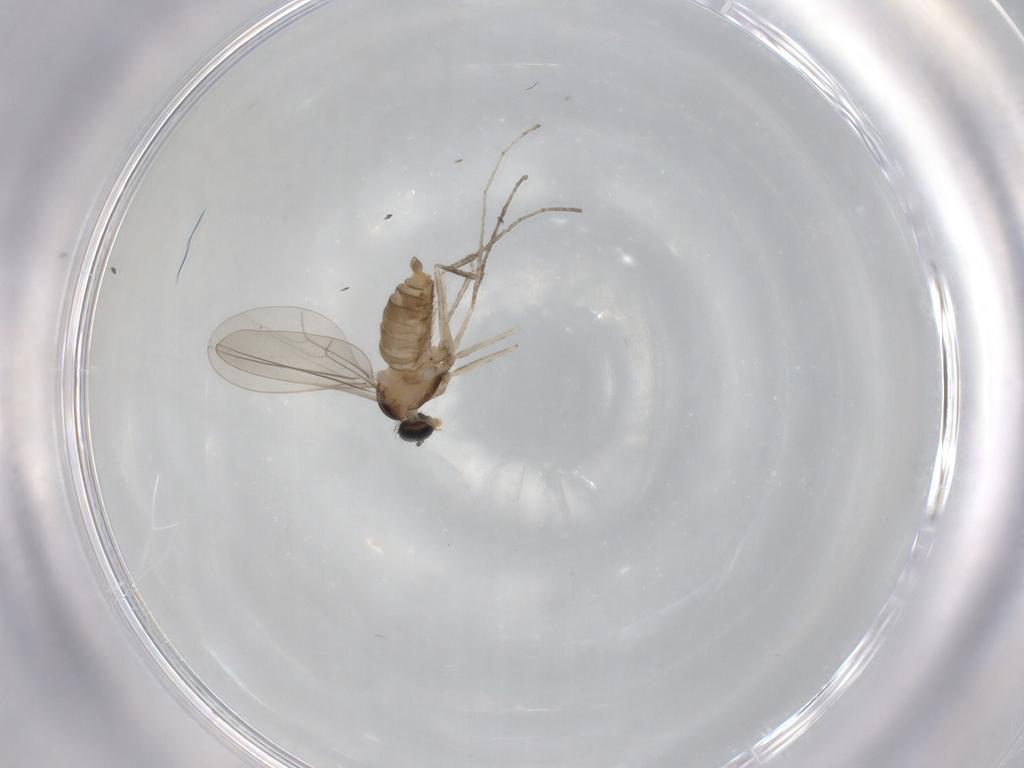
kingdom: Animalia
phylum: Arthropoda
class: Insecta
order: Diptera
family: Cecidomyiidae
